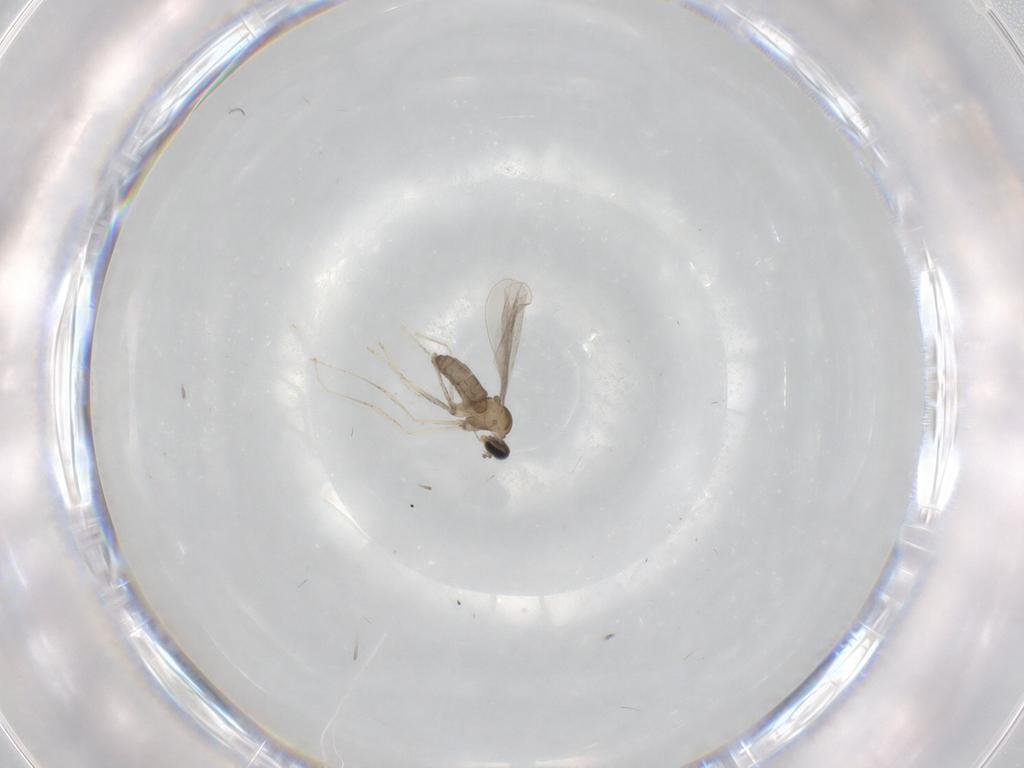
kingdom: Animalia
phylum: Arthropoda
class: Insecta
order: Diptera
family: Cecidomyiidae
